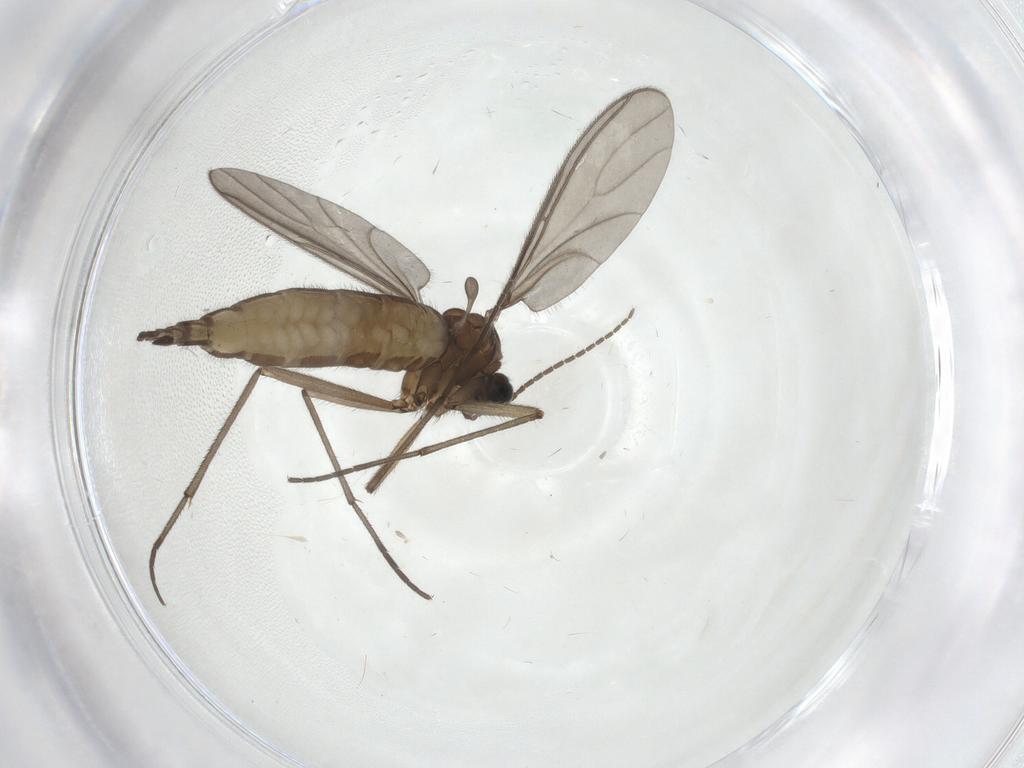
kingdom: Animalia
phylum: Arthropoda
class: Insecta
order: Diptera
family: Sciaridae
